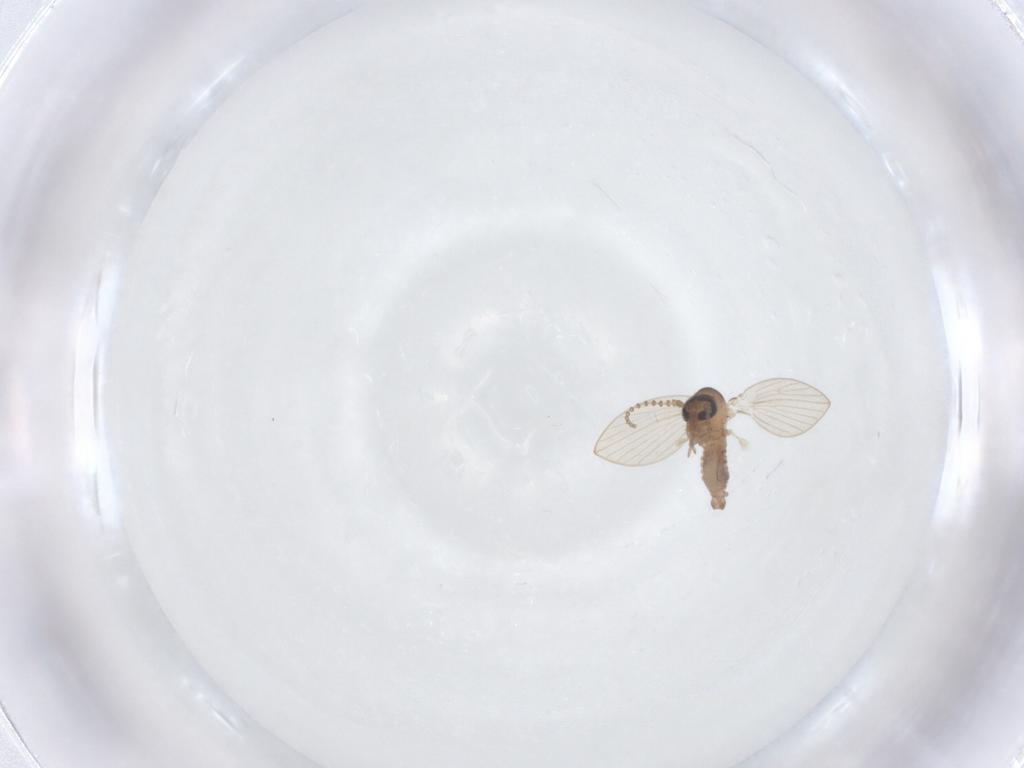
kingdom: Animalia
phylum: Arthropoda
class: Insecta
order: Diptera
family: Psychodidae
